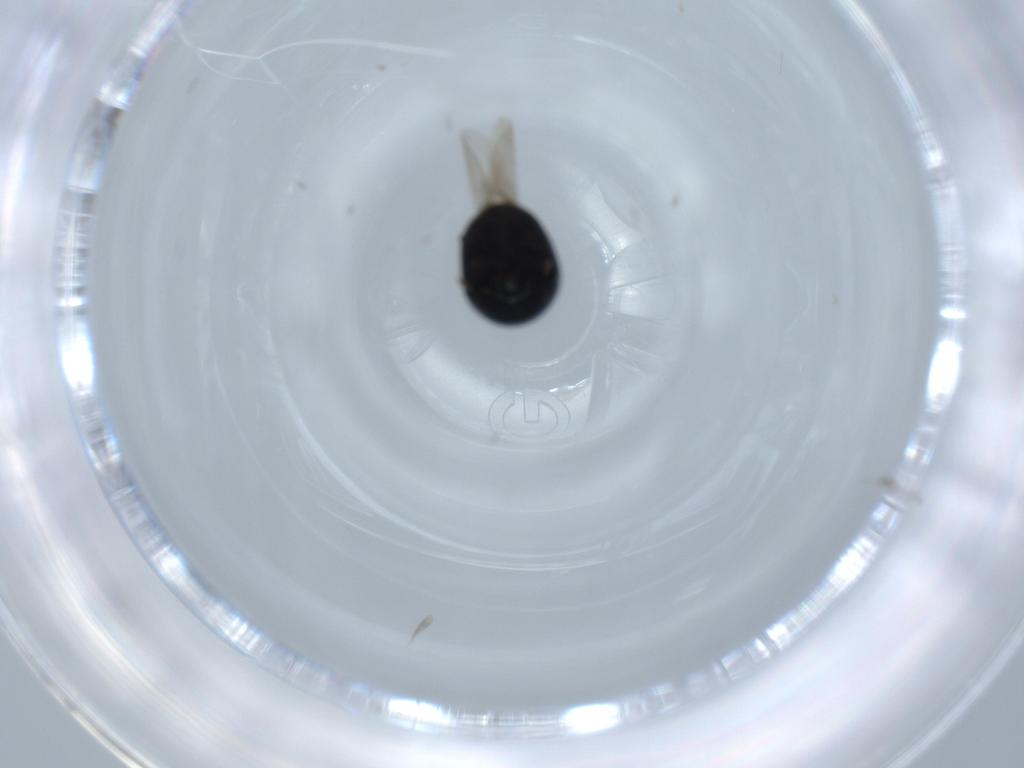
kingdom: Animalia
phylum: Arthropoda
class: Insecta
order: Coleoptera
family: Cybocephalidae
